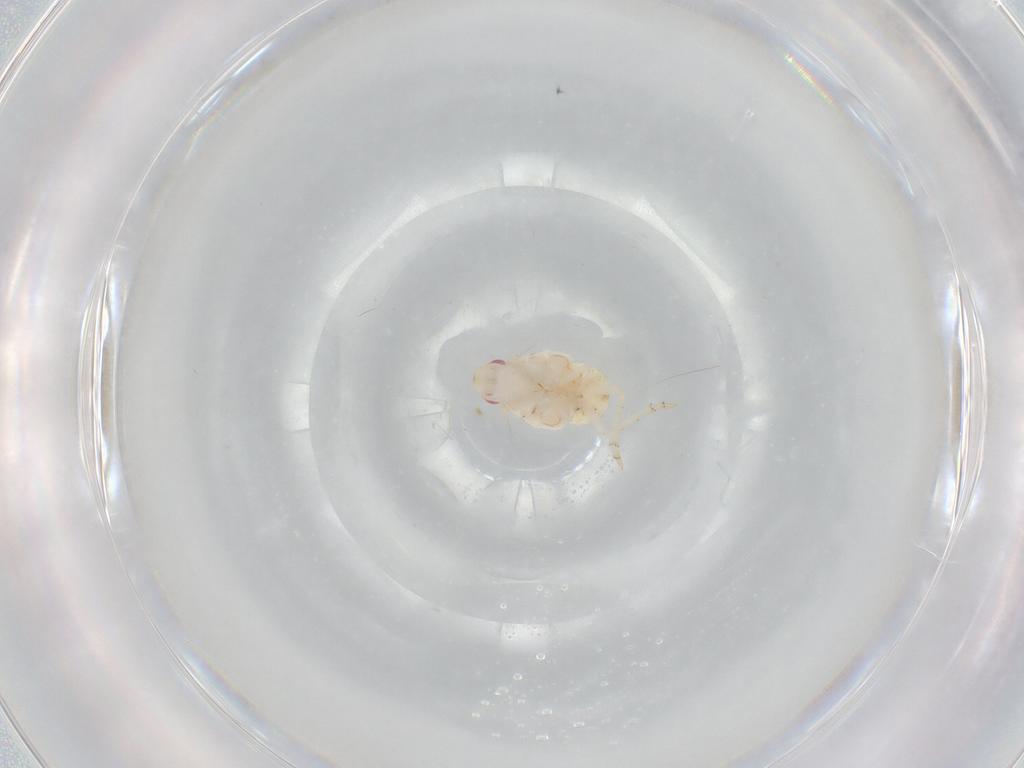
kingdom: Animalia
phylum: Arthropoda
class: Insecta
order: Hemiptera
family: Flatidae
